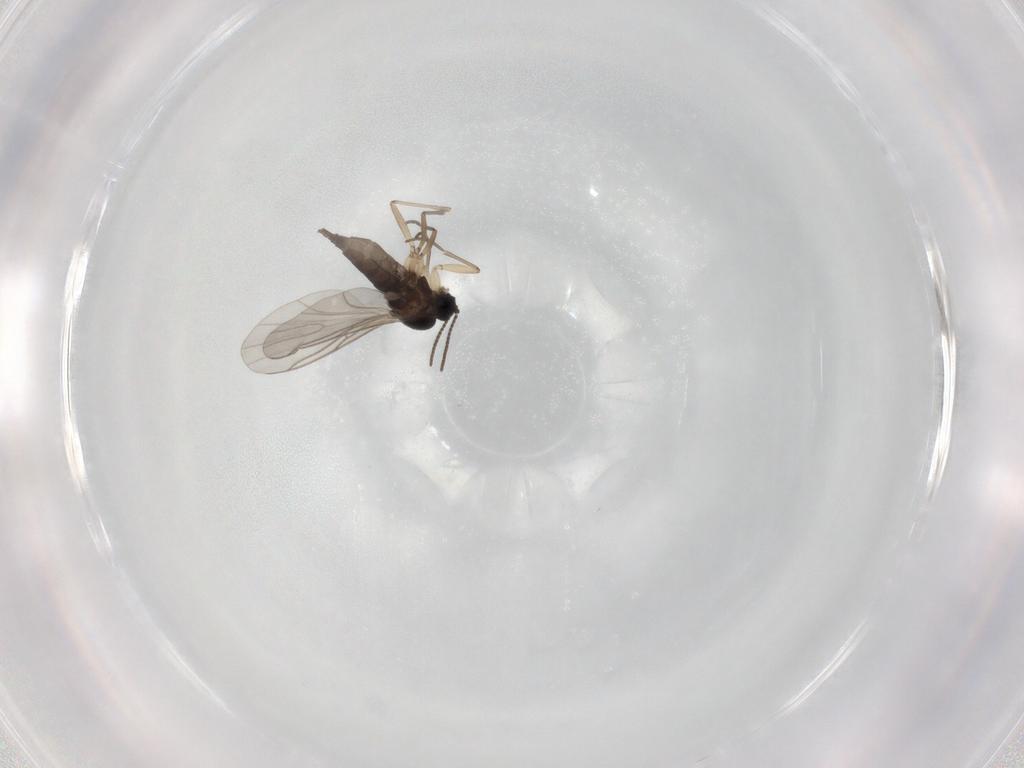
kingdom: Animalia
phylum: Arthropoda
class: Insecta
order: Diptera
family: Sciaridae
